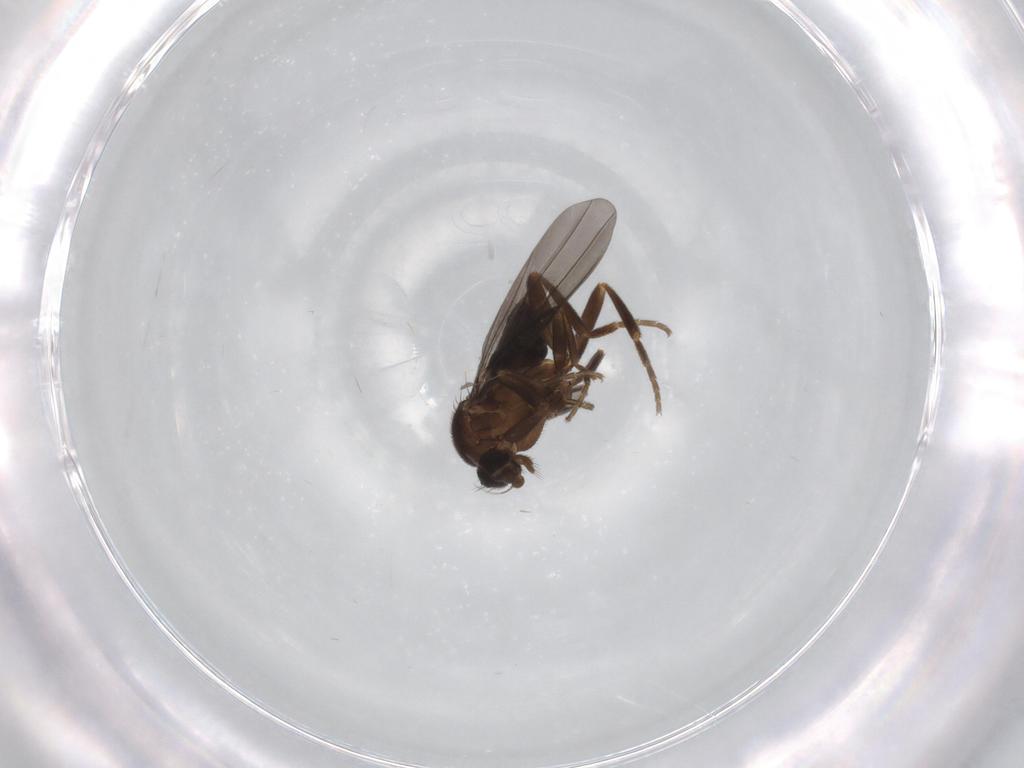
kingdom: Animalia
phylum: Arthropoda
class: Insecta
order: Diptera
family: Phoridae
